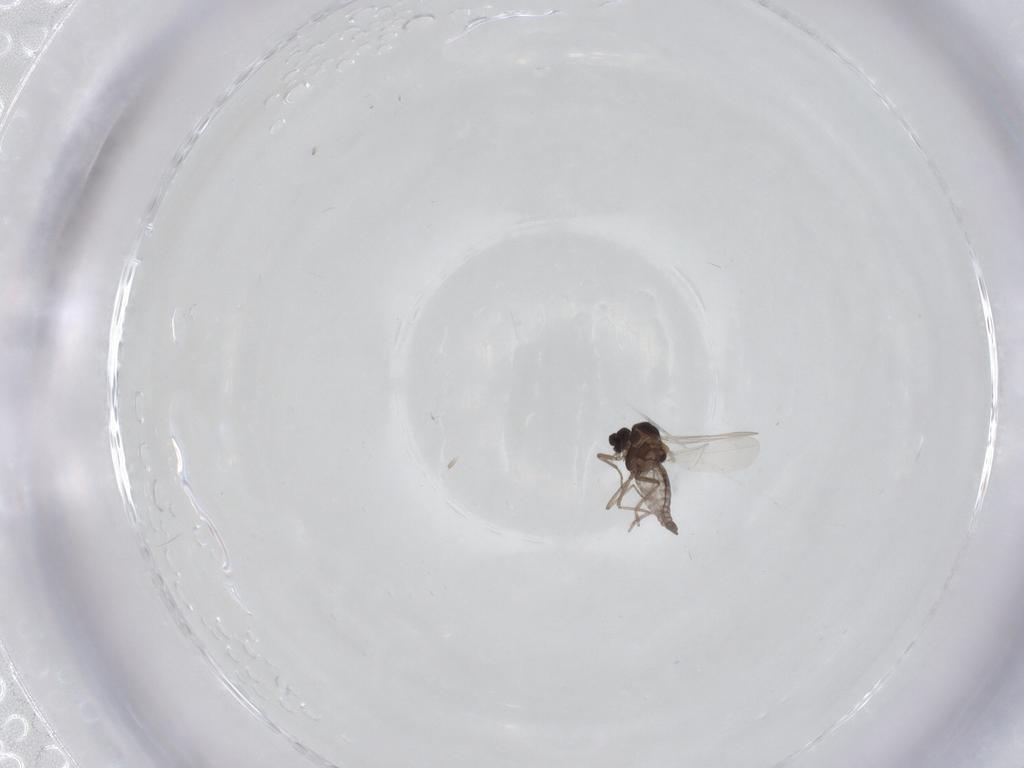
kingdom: Animalia
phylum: Arthropoda
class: Insecta
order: Diptera
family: Ceratopogonidae
